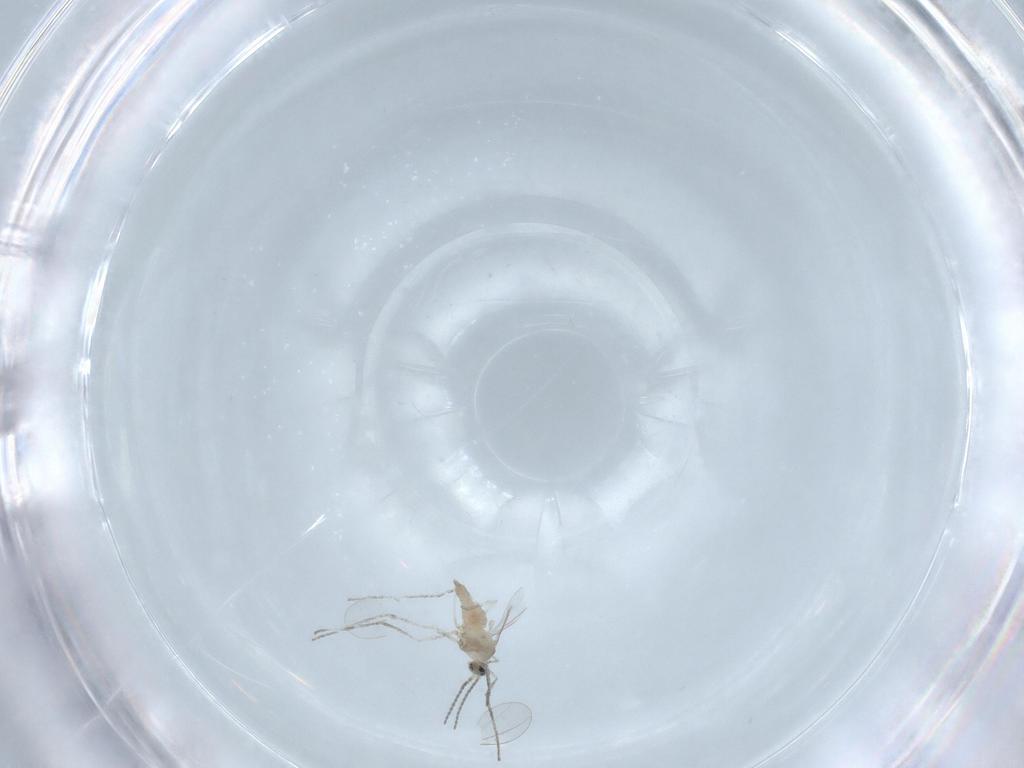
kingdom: Animalia
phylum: Arthropoda
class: Insecta
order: Diptera
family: Cecidomyiidae
